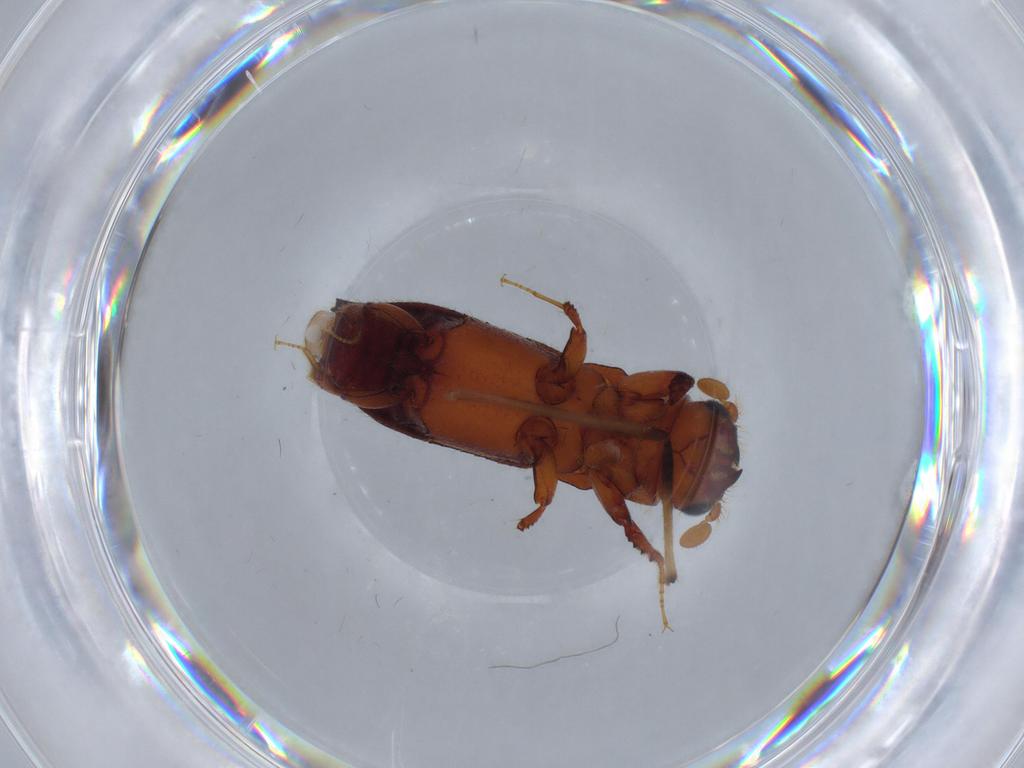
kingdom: Animalia
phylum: Arthropoda
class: Insecta
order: Coleoptera
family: Curculionidae
